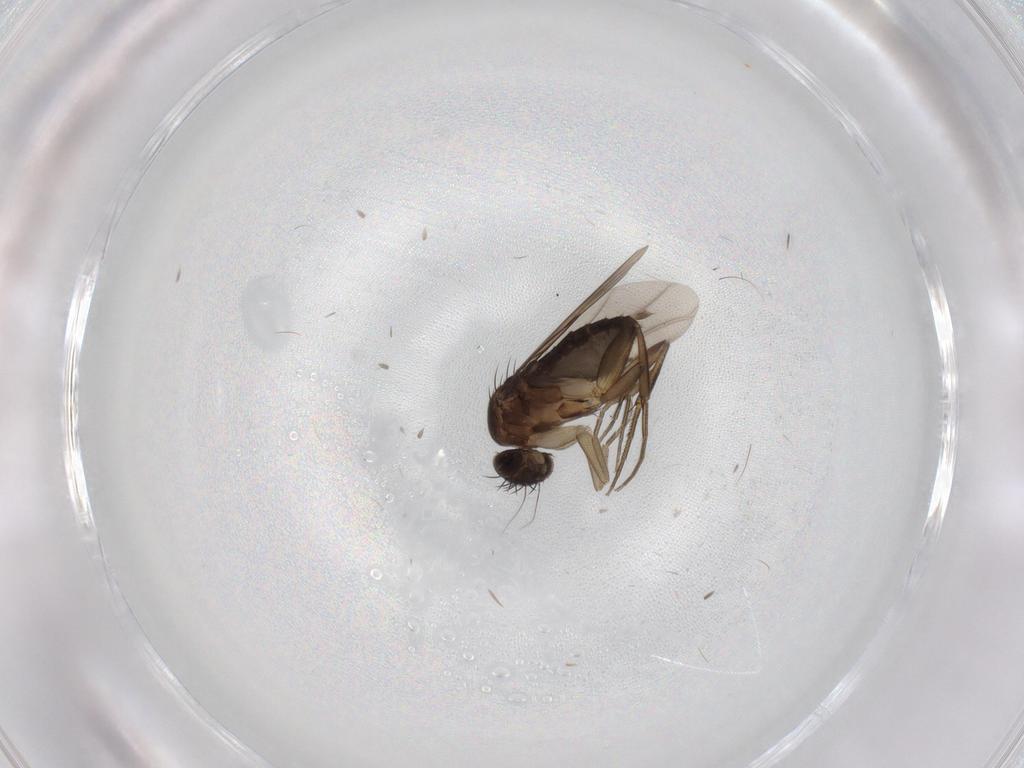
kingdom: Animalia
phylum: Arthropoda
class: Insecta
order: Diptera
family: Phoridae
